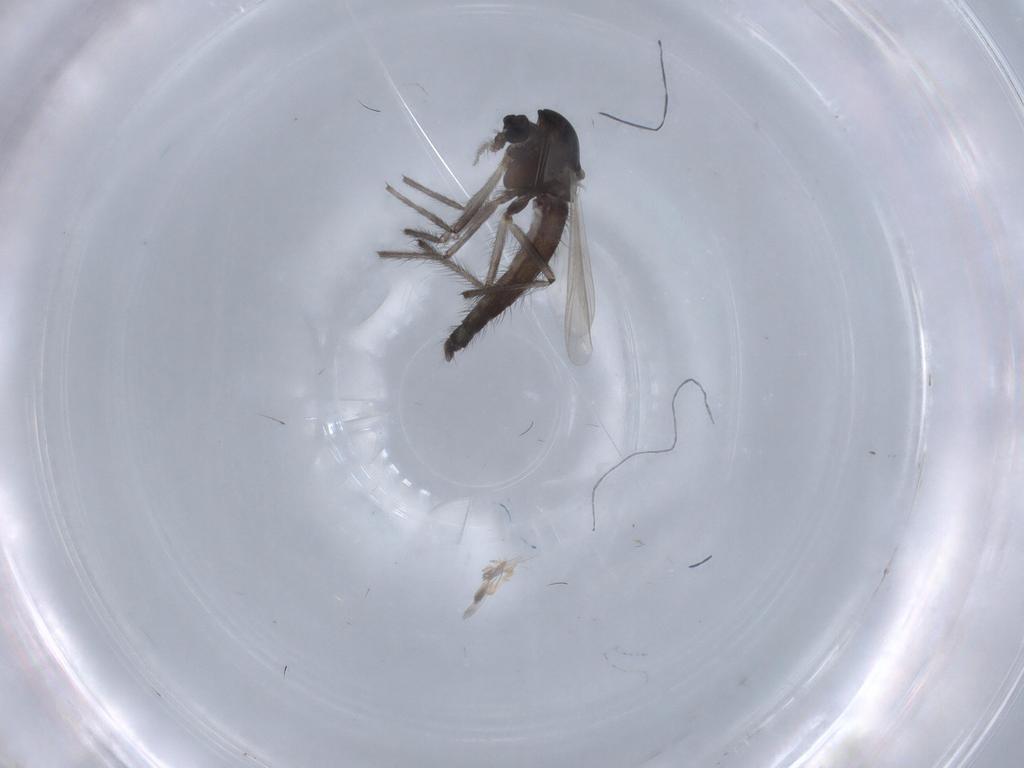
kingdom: Animalia
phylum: Arthropoda
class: Insecta
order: Diptera
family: Chironomidae
